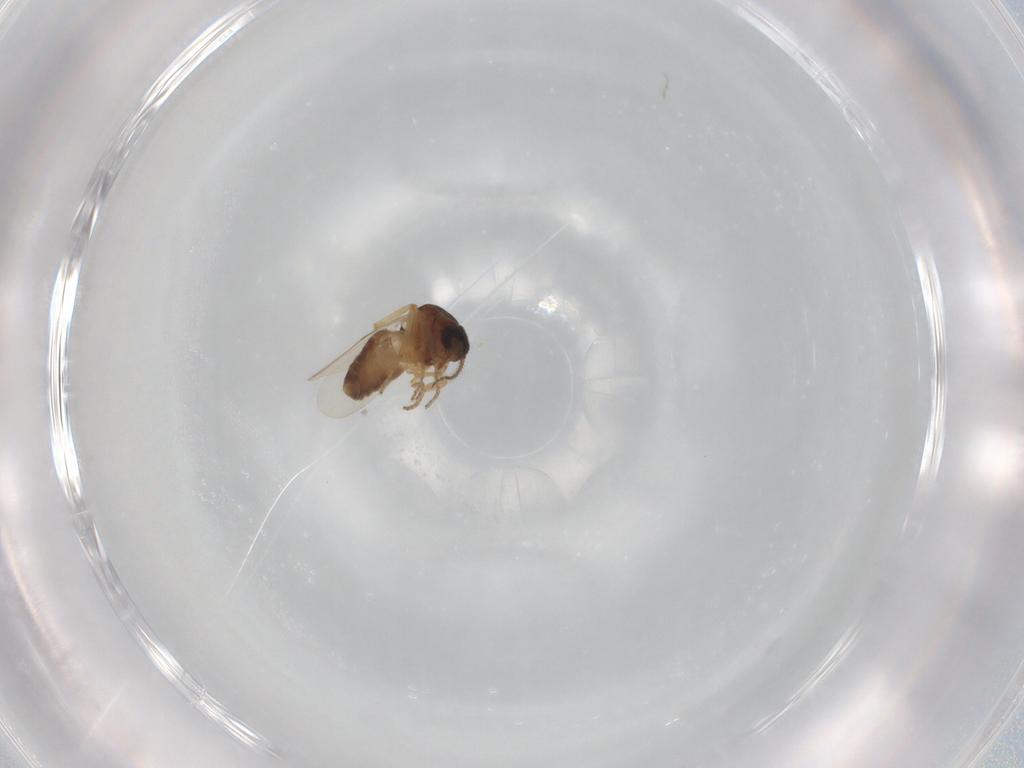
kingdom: Animalia
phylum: Arthropoda
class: Insecta
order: Diptera
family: Ceratopogonidae
